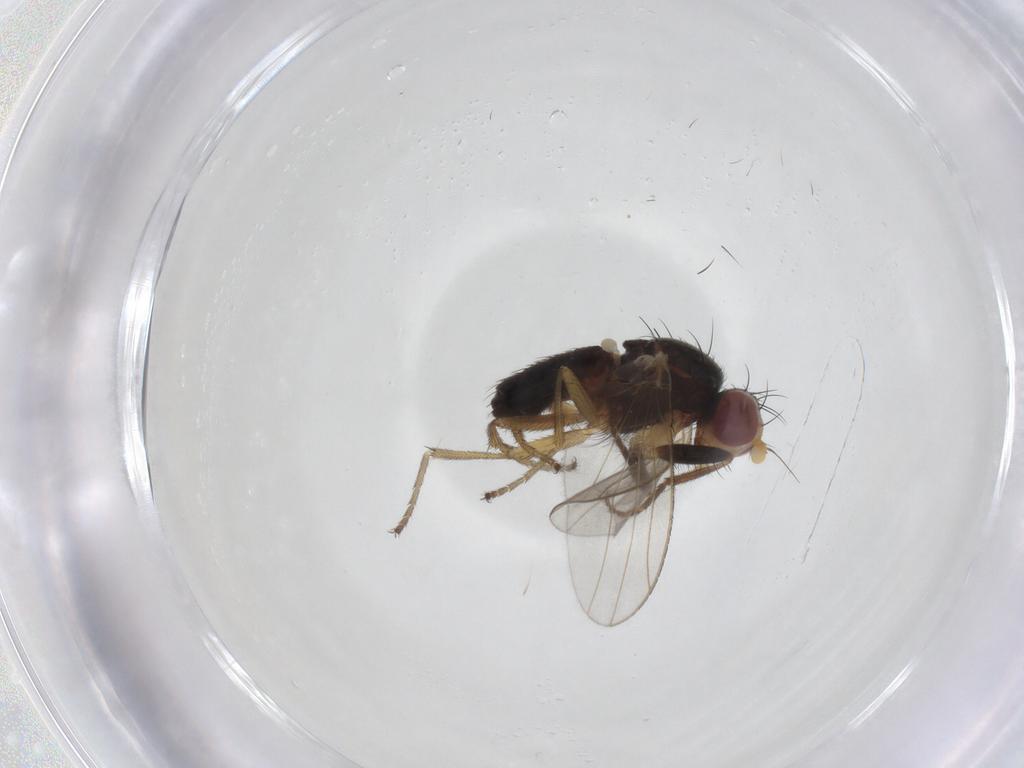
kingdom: Animalia
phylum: Arthropoda
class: Insecta
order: Diptera
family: Heleomyzidae
